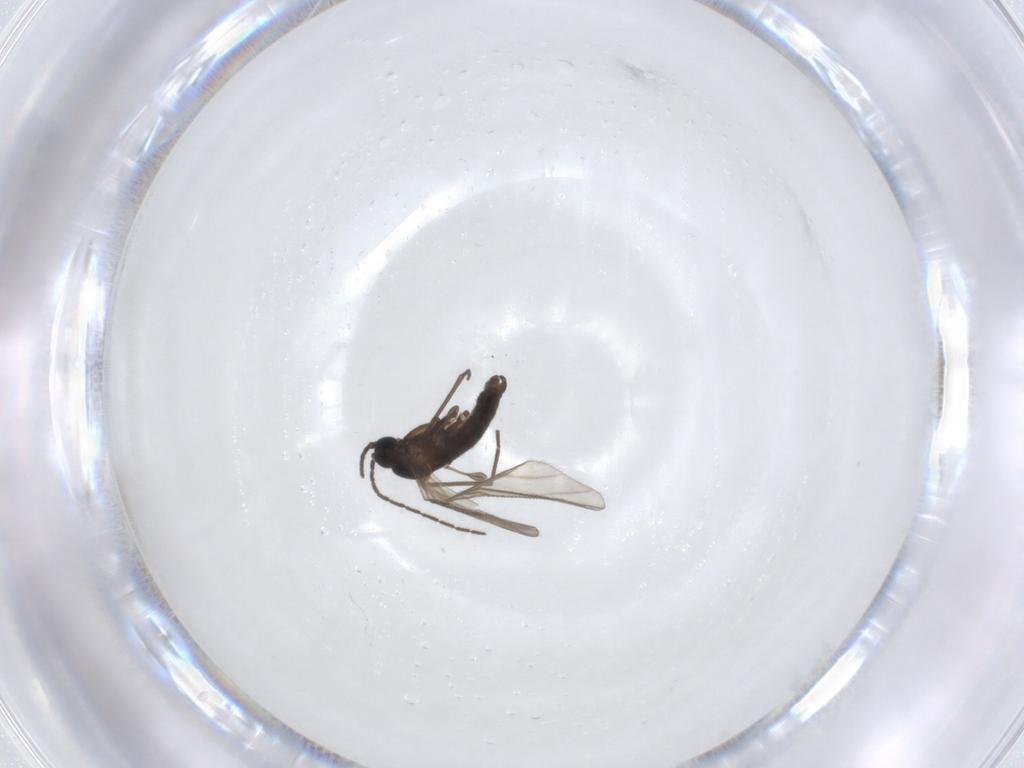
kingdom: Animalia
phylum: Arthropoda
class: Insecta
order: Diptera
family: Sciaridae
